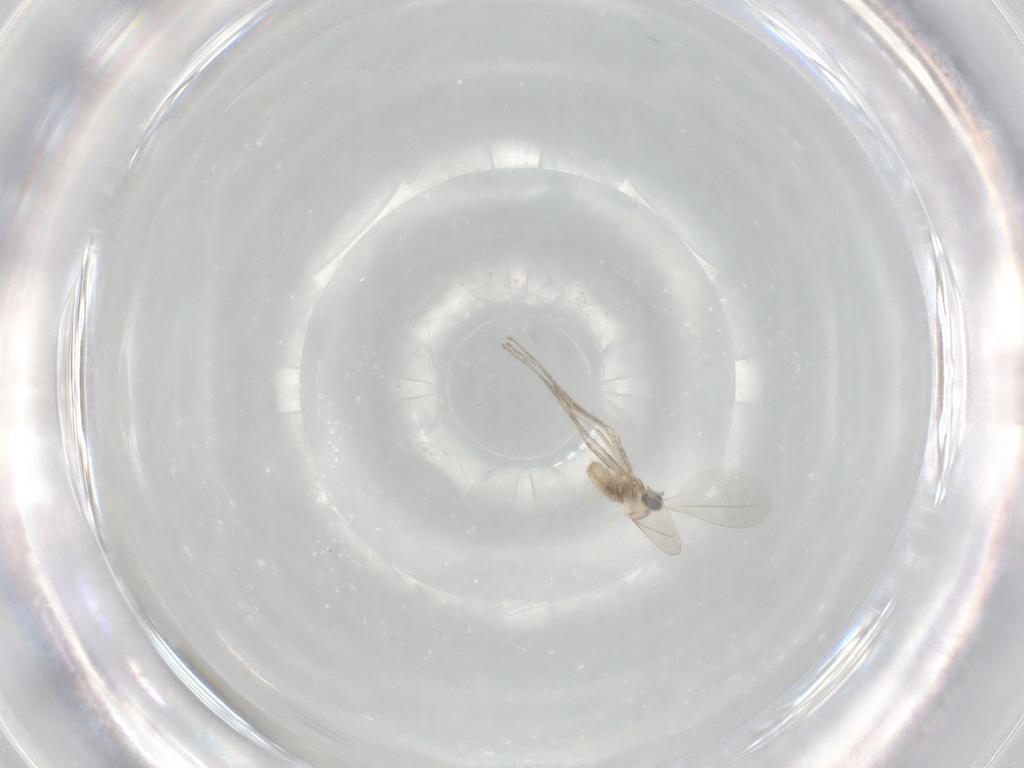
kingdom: Animalia
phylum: Arthropoda
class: Insecta
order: Diptera
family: Cecidomyiidae
